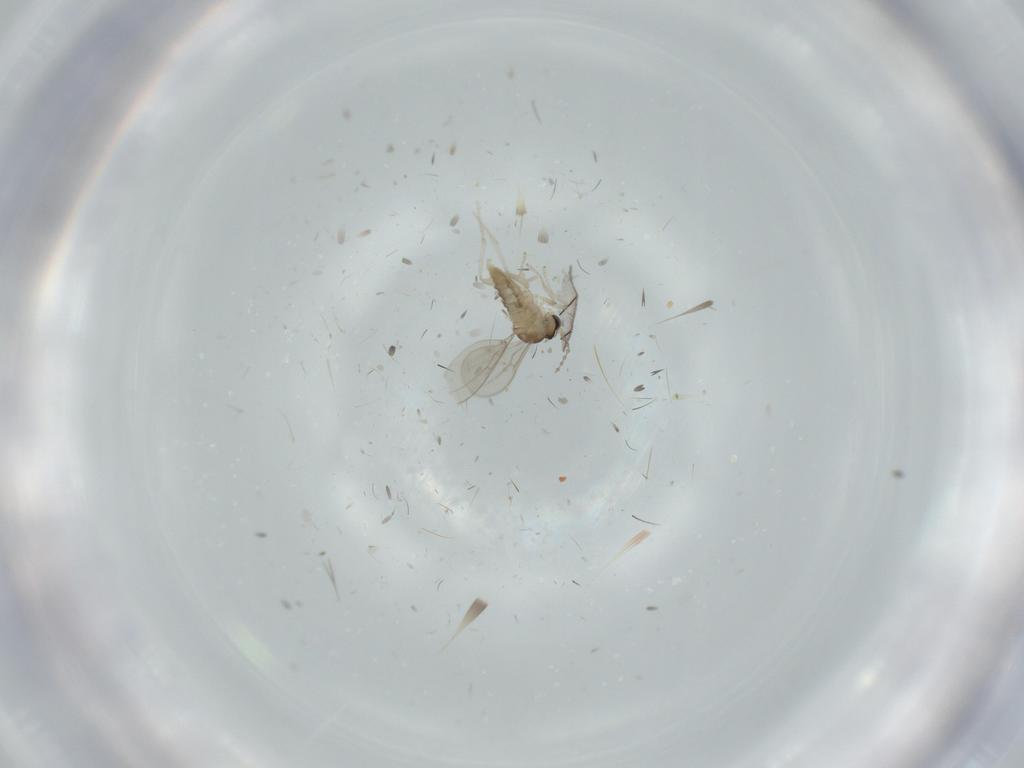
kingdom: Animalia
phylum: Arthropoda
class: Insecta
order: Diptera
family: Cecidomyiidae
